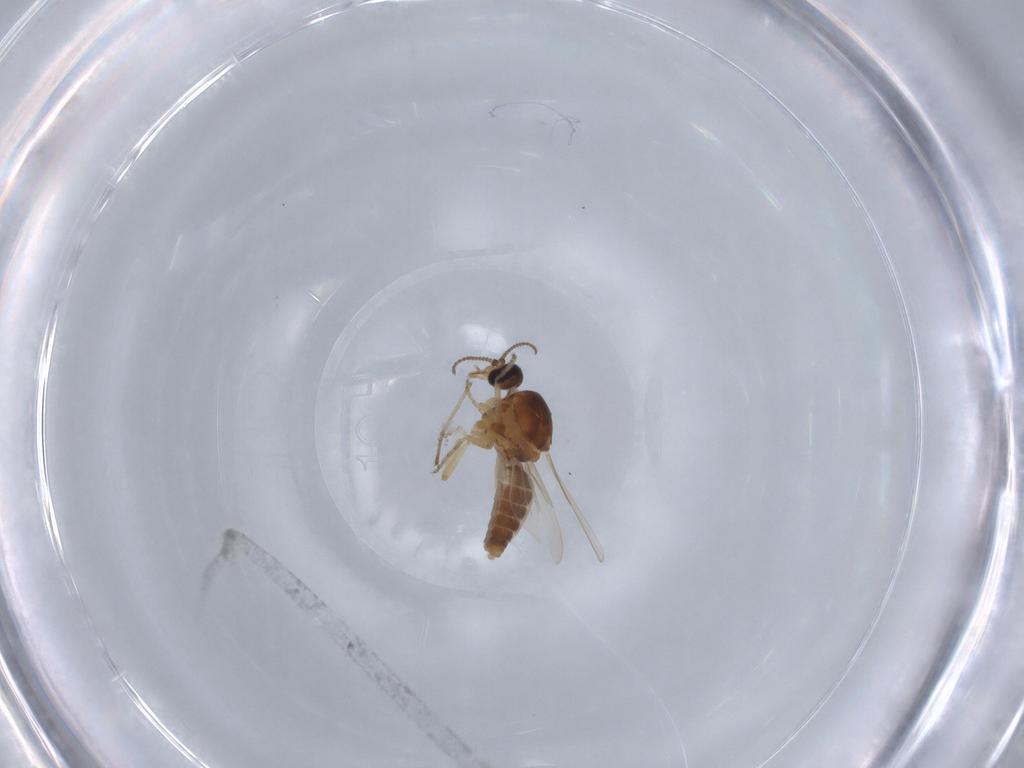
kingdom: Animalia
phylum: Arthropoda
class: Insecta
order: Diptera
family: Ceratopogonidae
